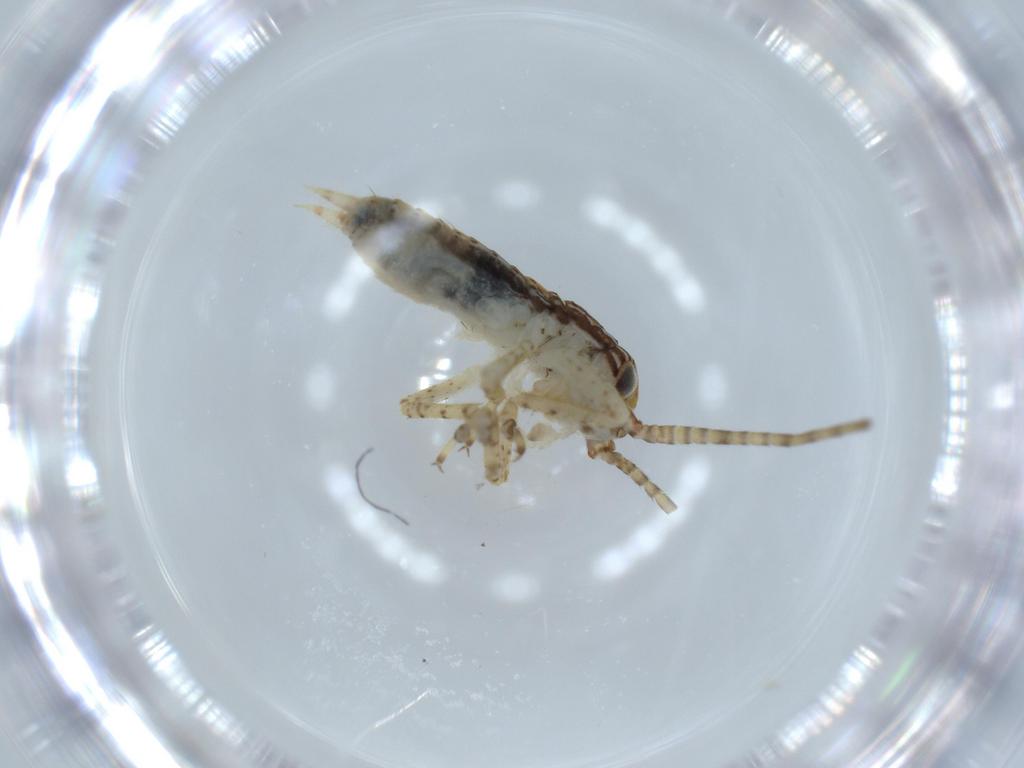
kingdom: Animalia
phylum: Arthropoda
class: Insecta
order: Orthoptera
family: Gryllidae
